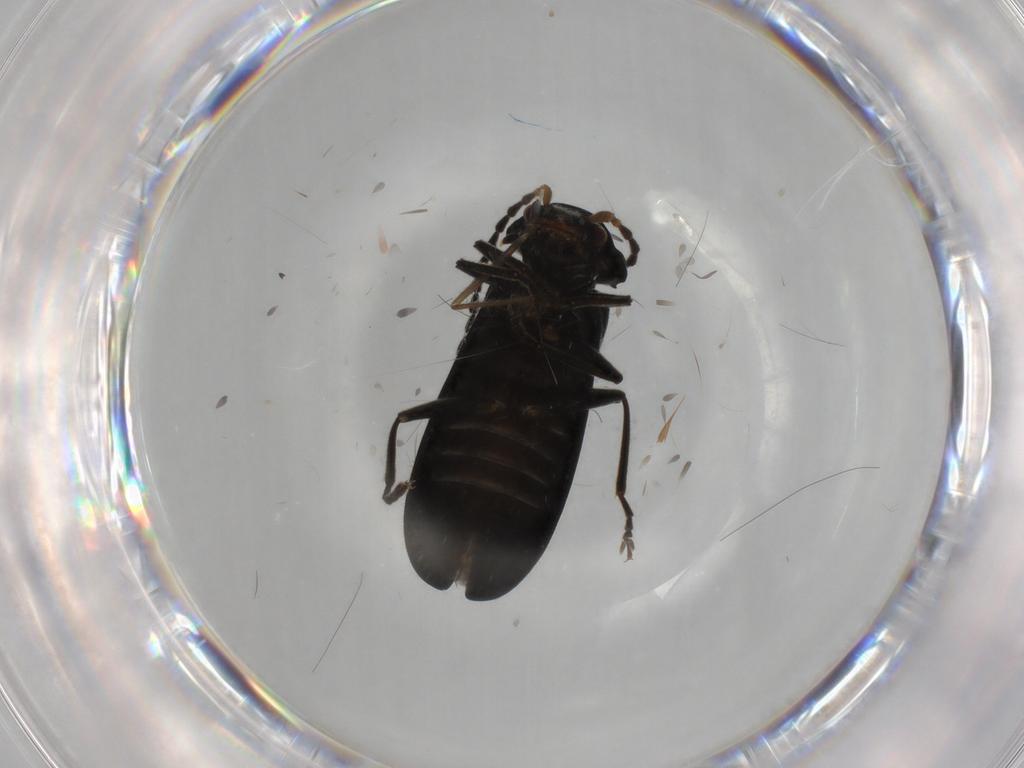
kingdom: Animalia
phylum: Arthropoda
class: Insecta
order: Coleoptera
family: Cantharidae
